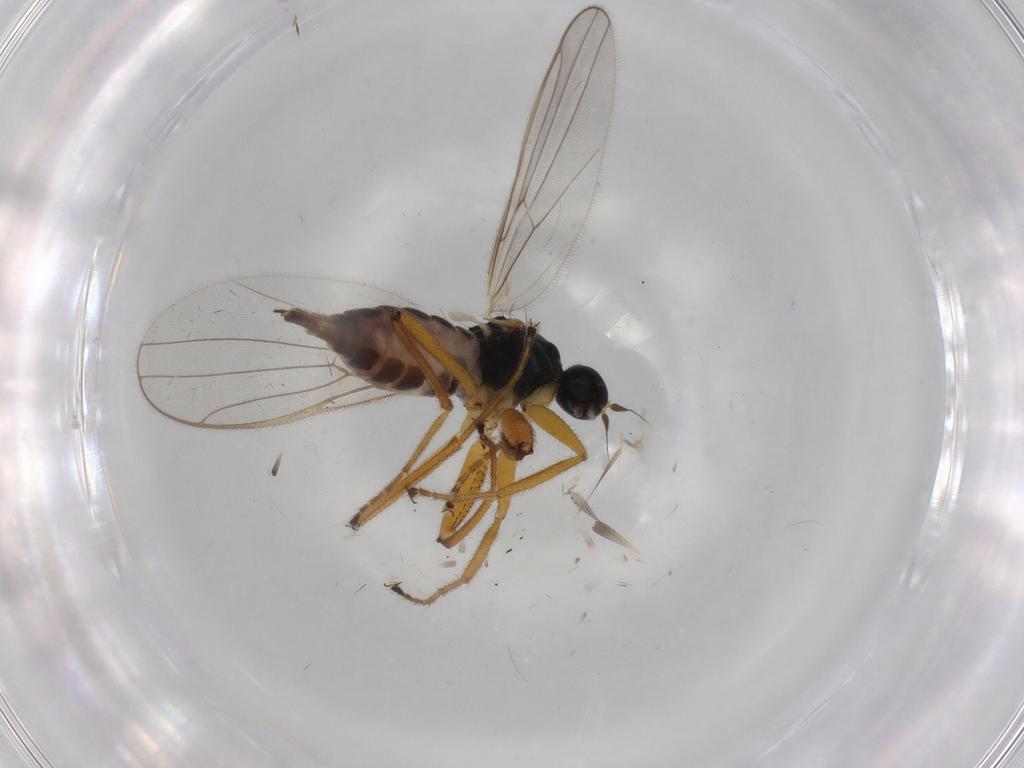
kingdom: Animalia
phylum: Arthropoda
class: Insecta
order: Diptera
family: Hybotidae
